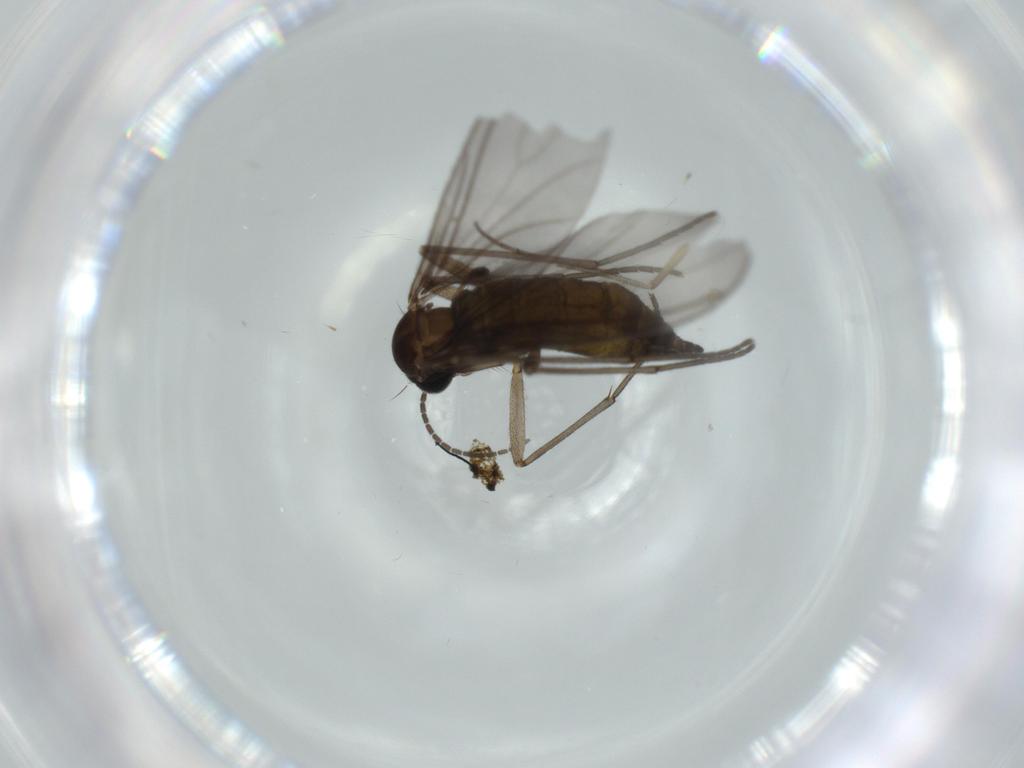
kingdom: Animalia
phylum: Arthropoda
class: Insecta
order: Diptera
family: Sciaridae
